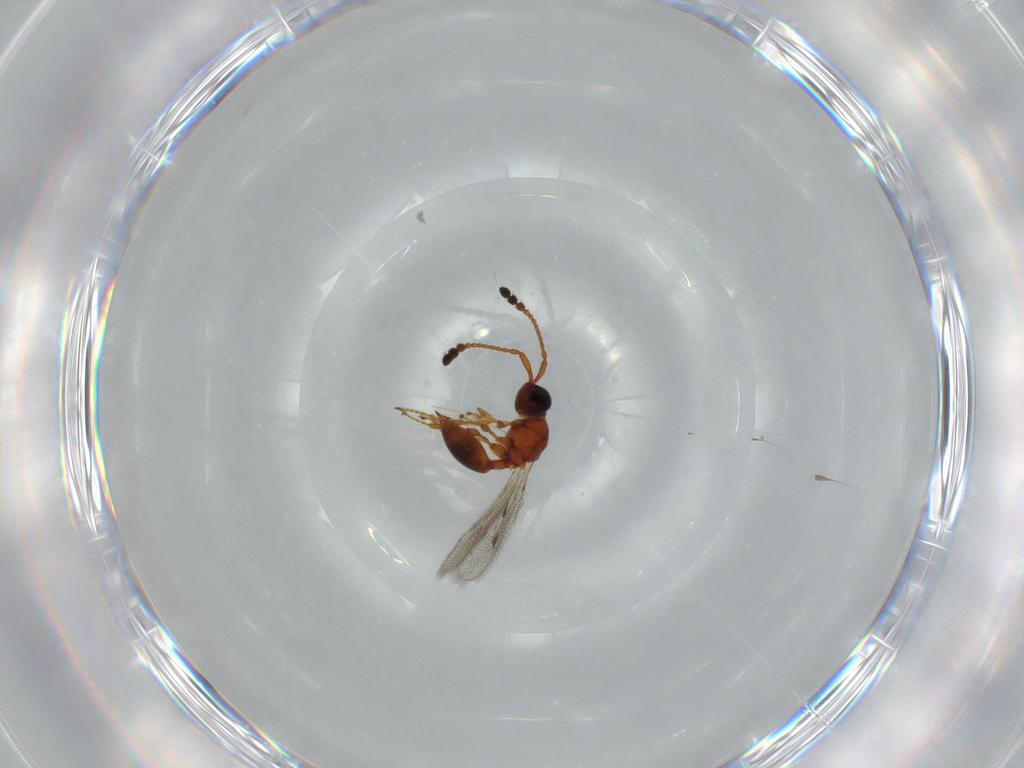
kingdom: Animalia
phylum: Arthropoda
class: Insecta
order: Hymenoptera
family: Diapriidae
